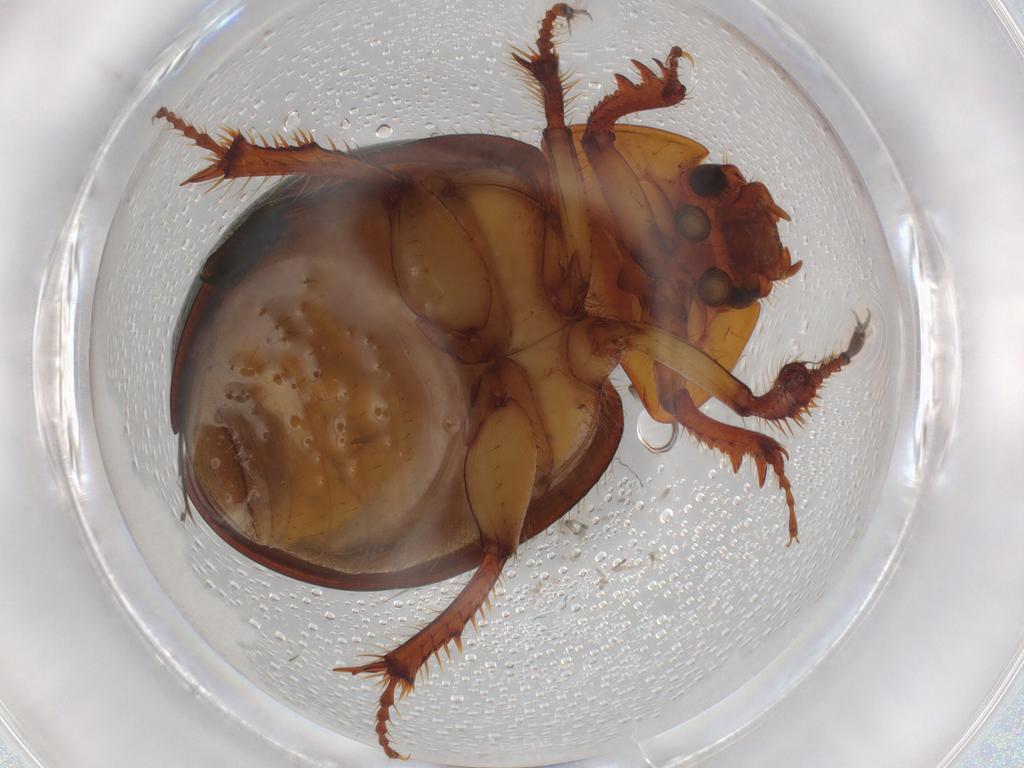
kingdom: Animalia
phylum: Arthropoda
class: Insecta
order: Coleoptera
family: Hybosoridae
